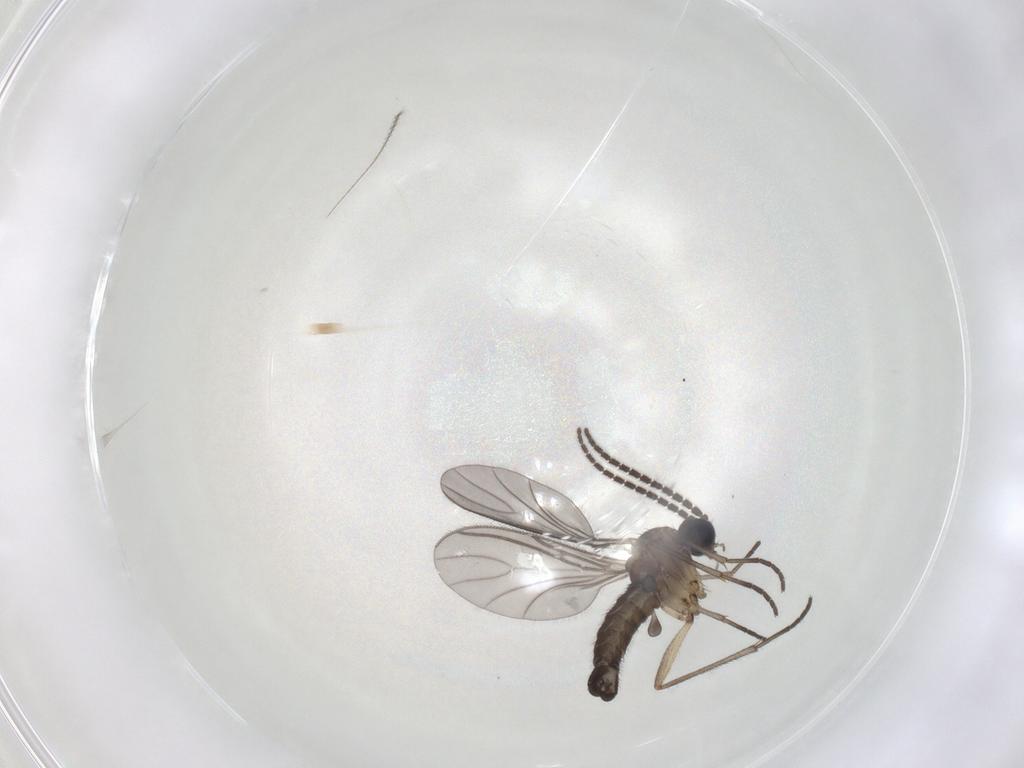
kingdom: Animalia
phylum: Arthropoda
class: Insecta
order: Diptera
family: Sciaridae
